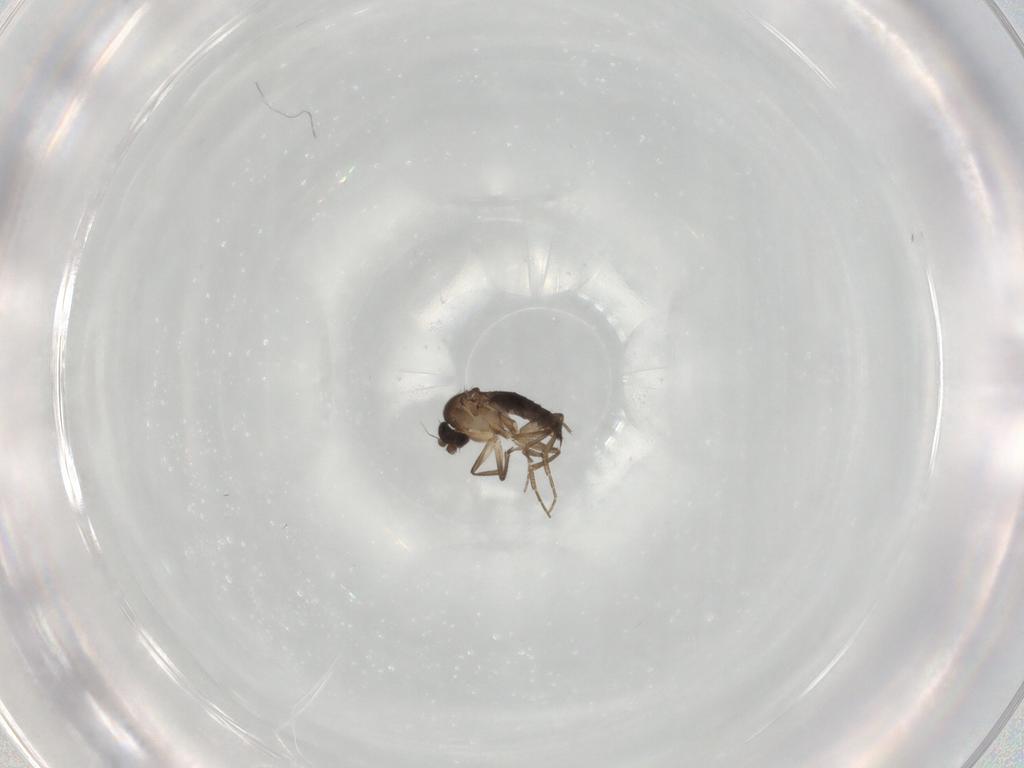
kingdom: Animalia
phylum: Arthropoda
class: Insecta
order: Diptera
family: Phoridae
